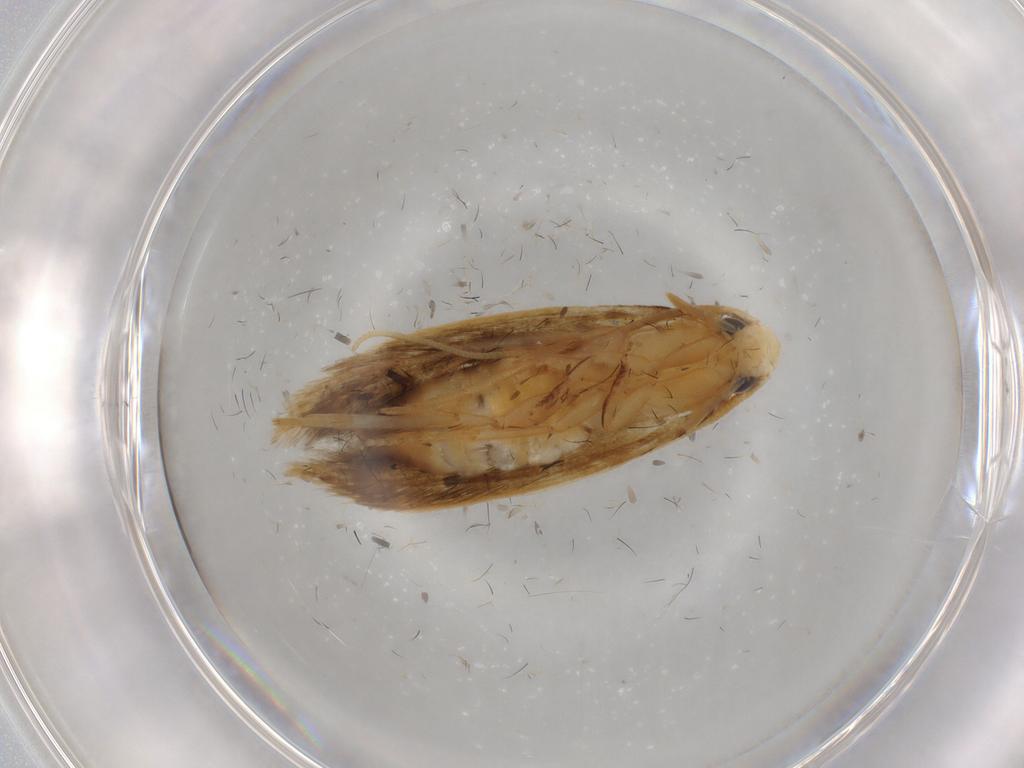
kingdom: Animalia
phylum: Arthropoda
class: Insecta
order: Lepidoptera
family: Tineidae
